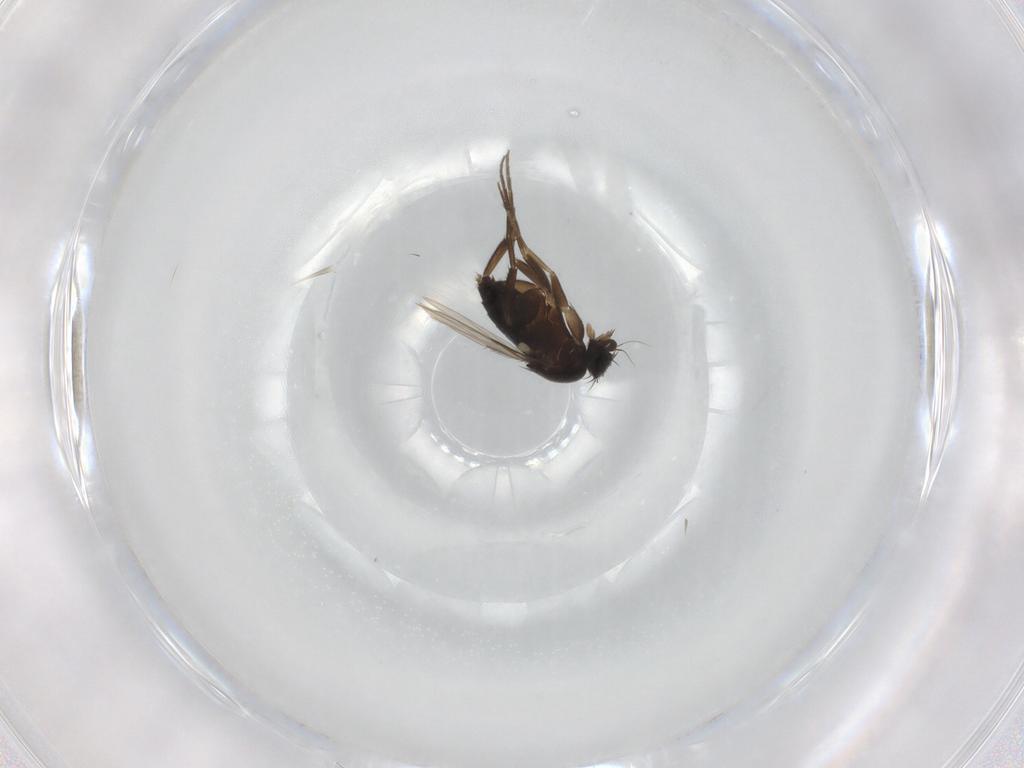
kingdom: Animalia
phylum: Arthropoda
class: Insecta
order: Diptera
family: Phoridae
